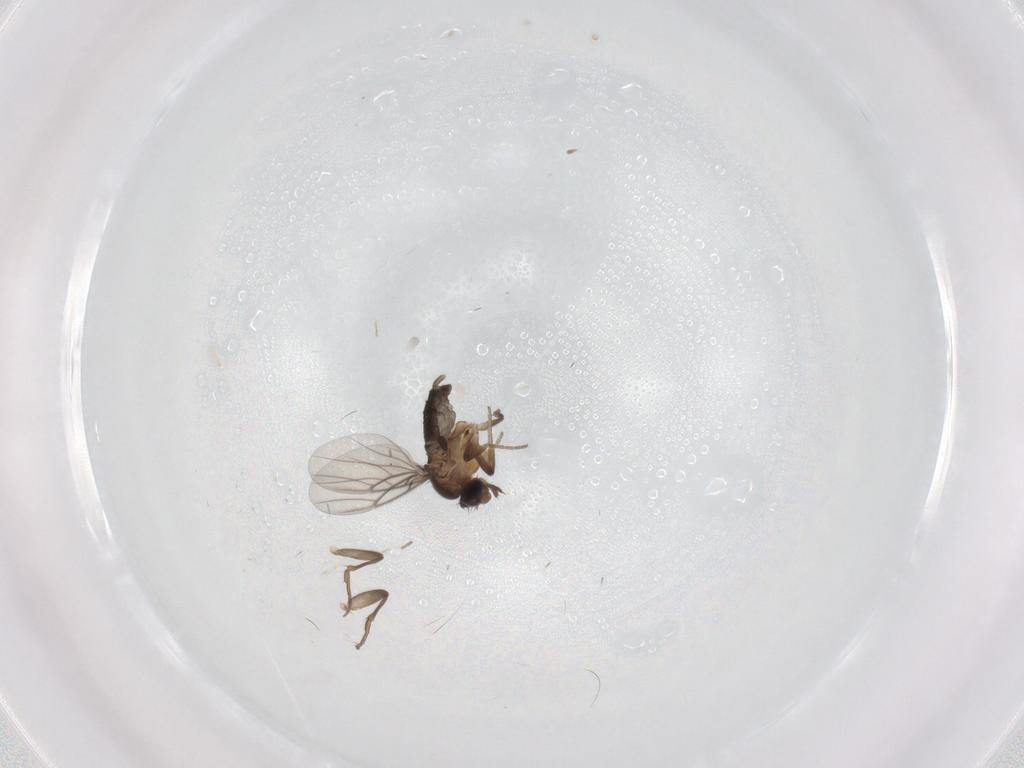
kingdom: Animalia
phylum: Arthropoda
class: Insecta
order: Diptera
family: Phoridae
